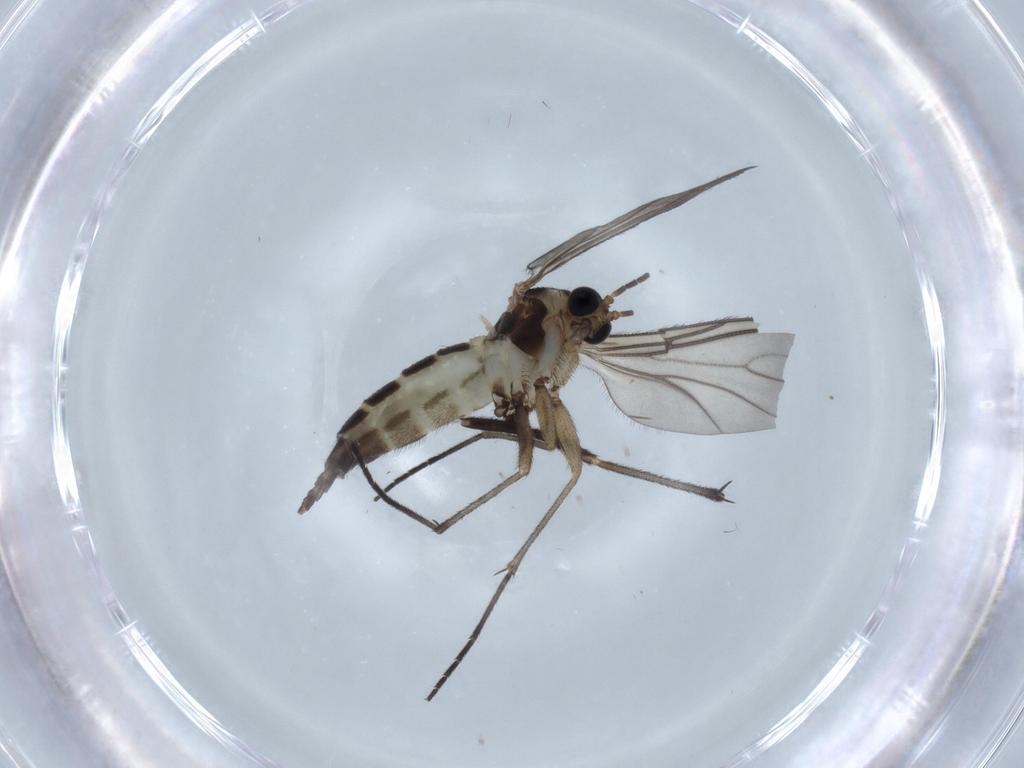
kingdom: Animalia
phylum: Arthropoda
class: Insecta
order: Diptera
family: Sciaridae
